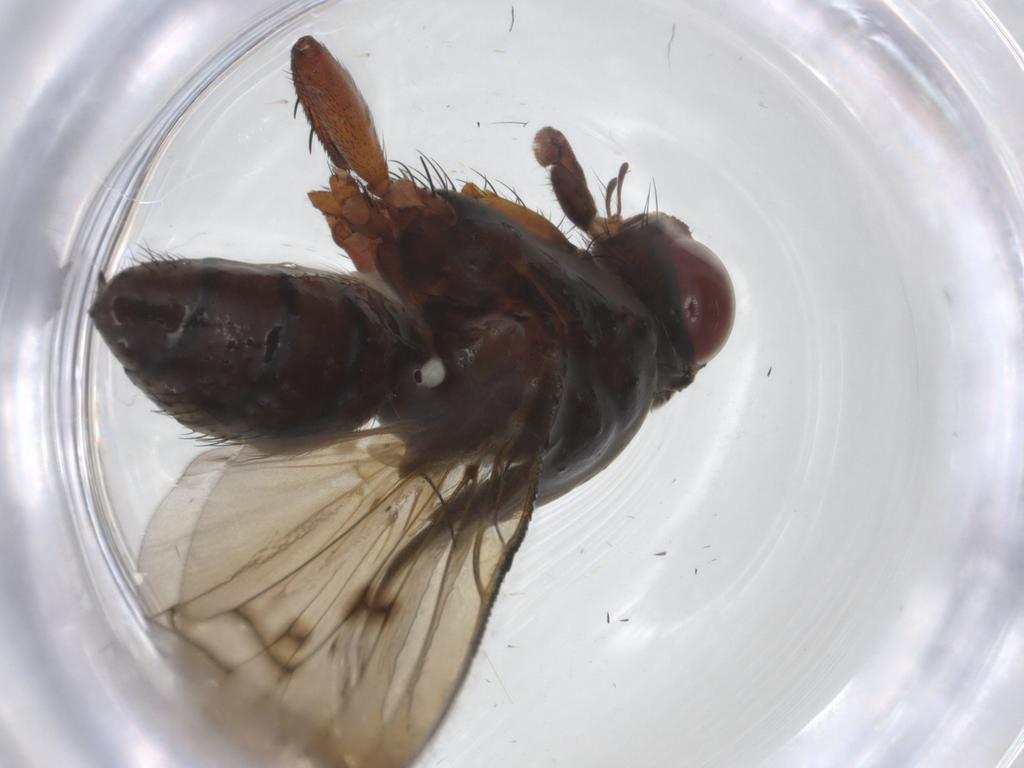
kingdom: Animalia
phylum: Arthropoda
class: Insecta
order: Diptera
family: Anthomyiidae
